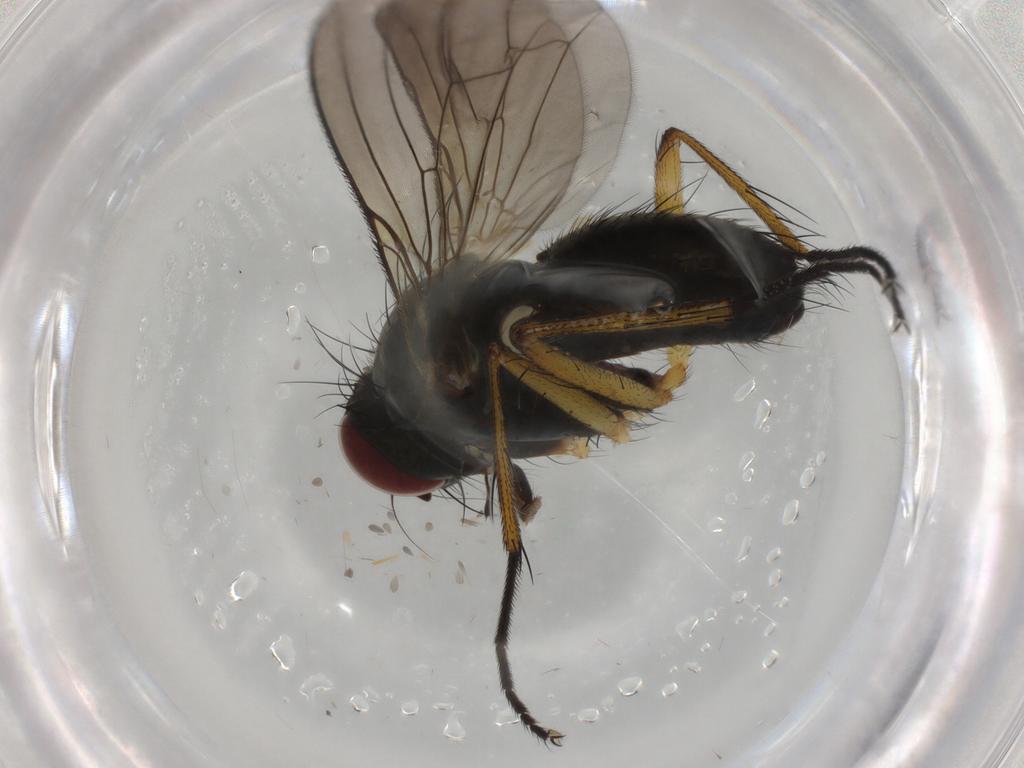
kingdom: Animalia
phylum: Arthropoda
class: Insecta
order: Diptera
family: Muscidae
